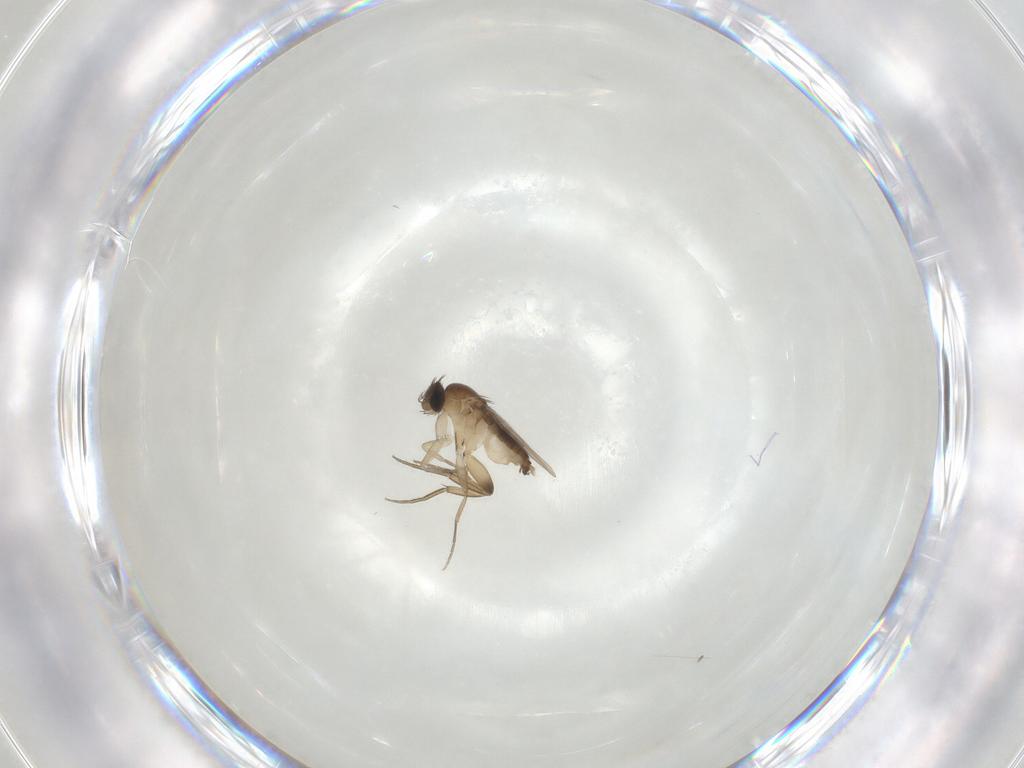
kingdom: Animalia
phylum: Arthropoda
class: Insecta
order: Diptera
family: Phoridae
